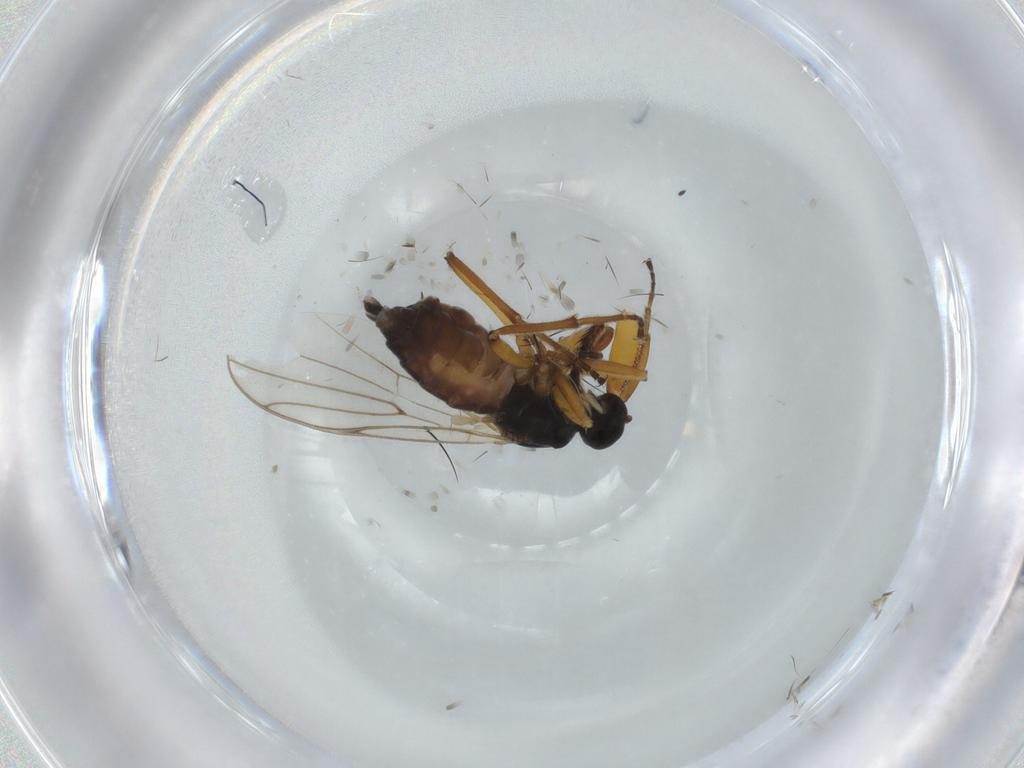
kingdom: Animalia
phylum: Arthropoda
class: Insecta
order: Diptera
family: Hybotidae
